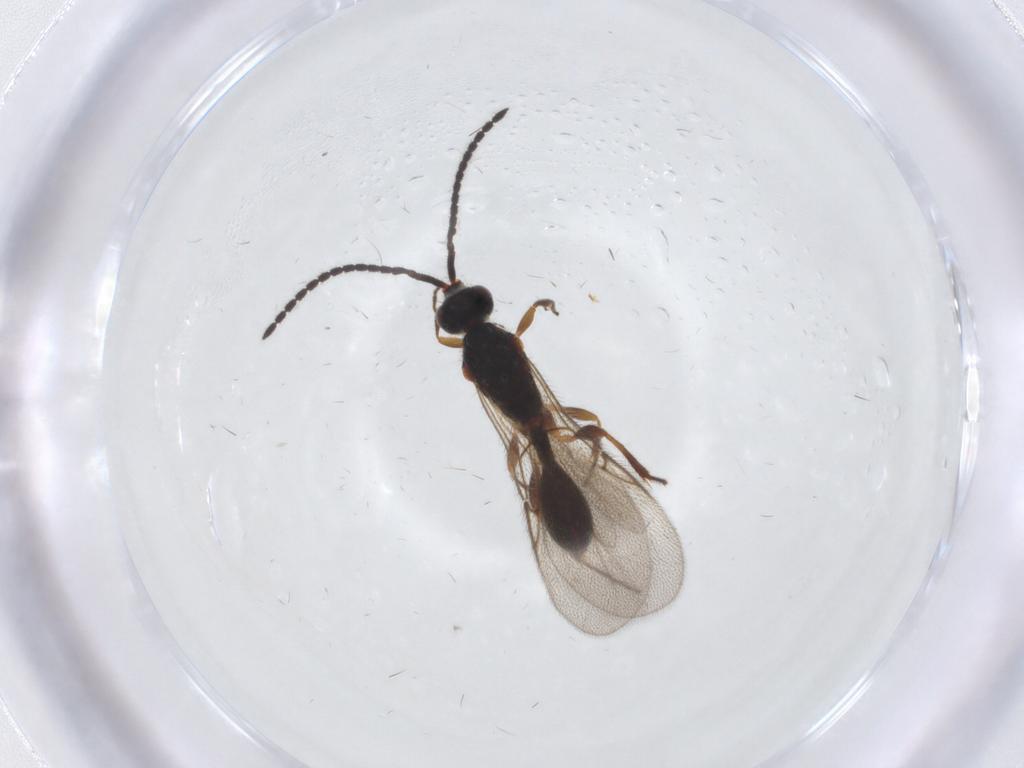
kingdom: Animalia
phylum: Arthropoda
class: Insecta
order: Hymenoptera
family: Diapriidae
